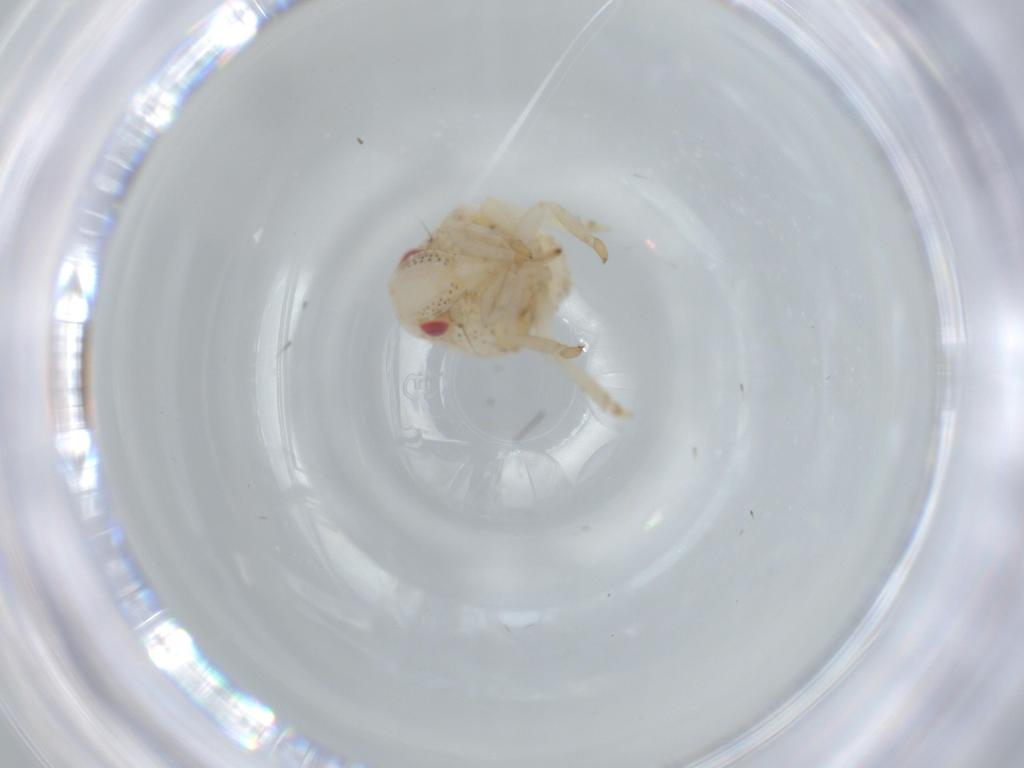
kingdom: Animalia
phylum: Arthropoda
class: Insecta
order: Hemiptera
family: Acanaloniidae
